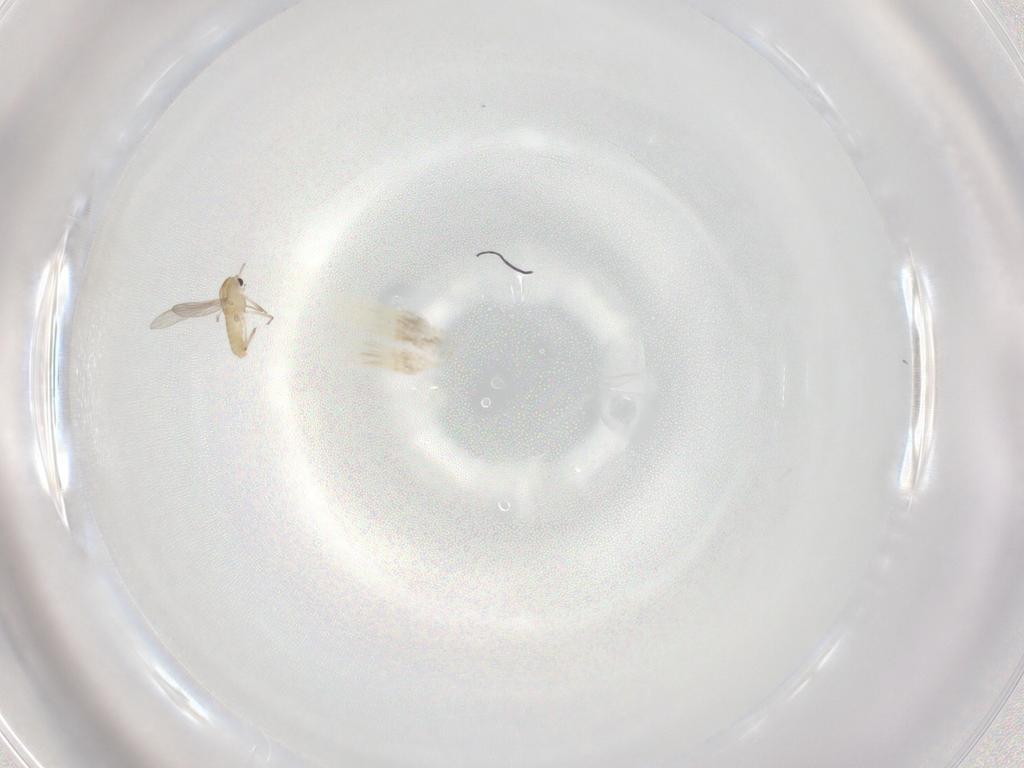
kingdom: Animalia
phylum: Arthropoda
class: Insecta
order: Diptera
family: Chironomidae
